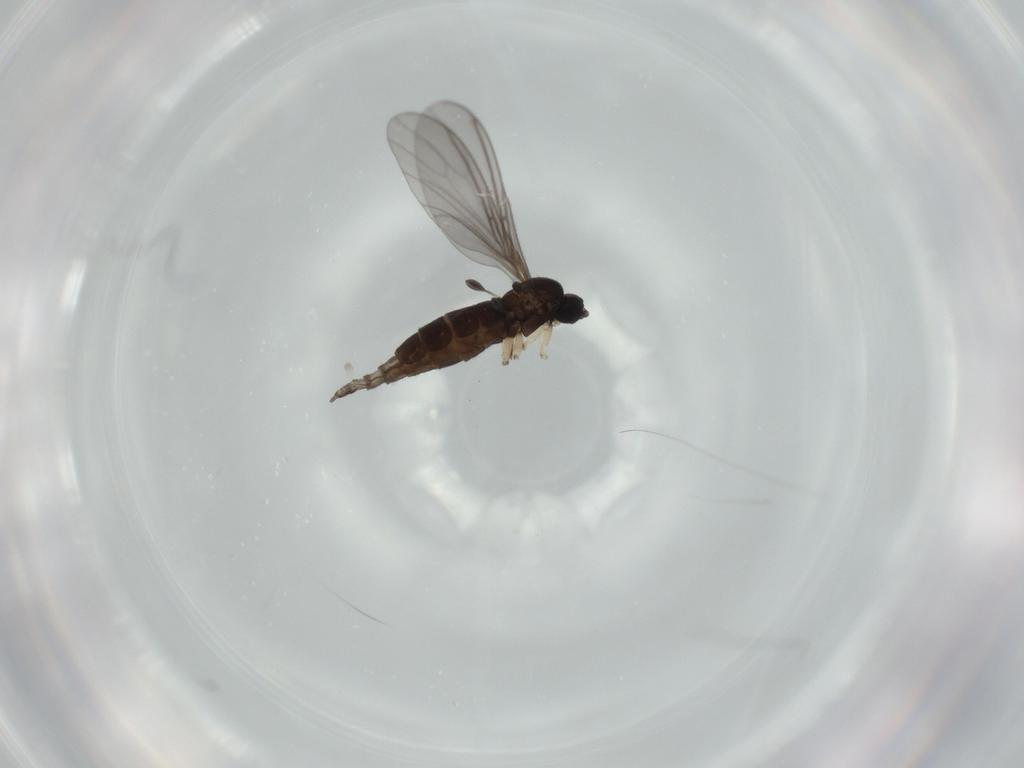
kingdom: Animalia
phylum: Arthropoda
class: Insecta
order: Diptera
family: Sciaridae
